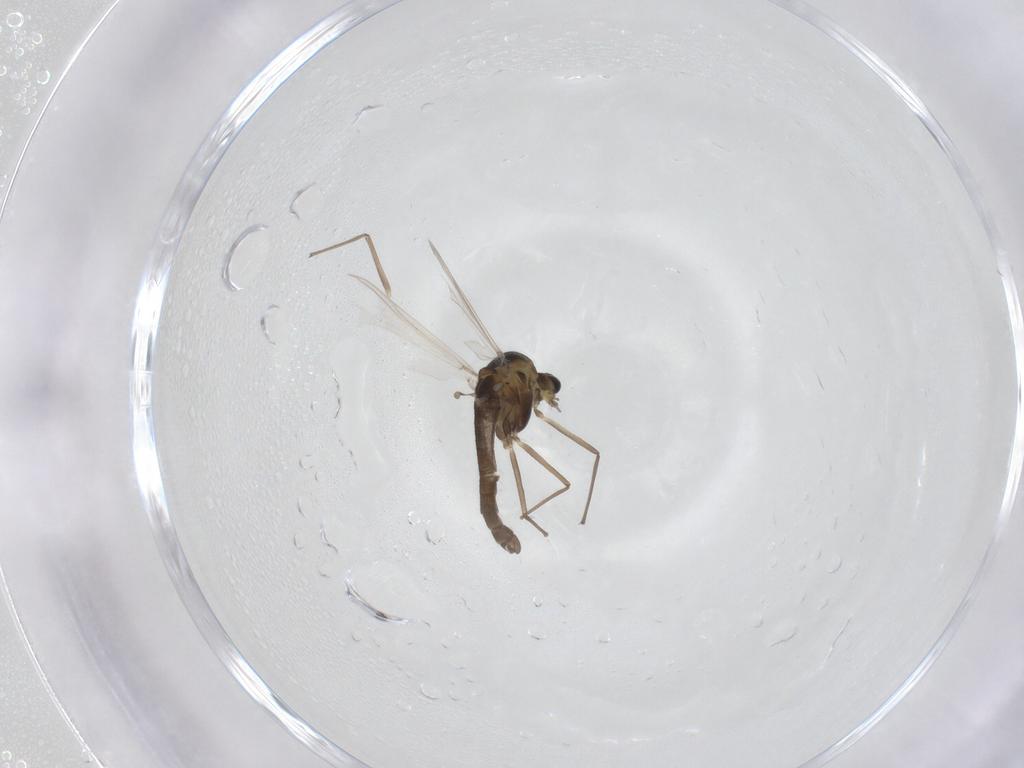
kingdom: Animalia
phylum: Arthropoda
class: Insecta
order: Diptera
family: Chironomidae
